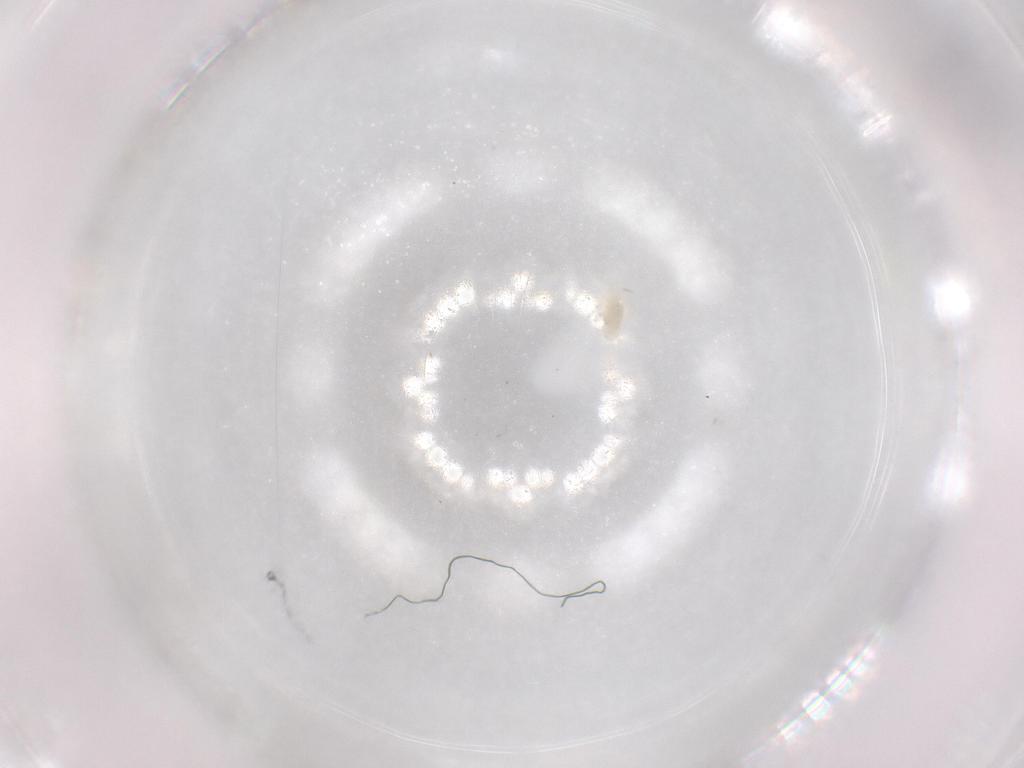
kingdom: Animalia
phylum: Arthropoda
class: Arachnida
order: Trombidiformes
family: Eupodidae
